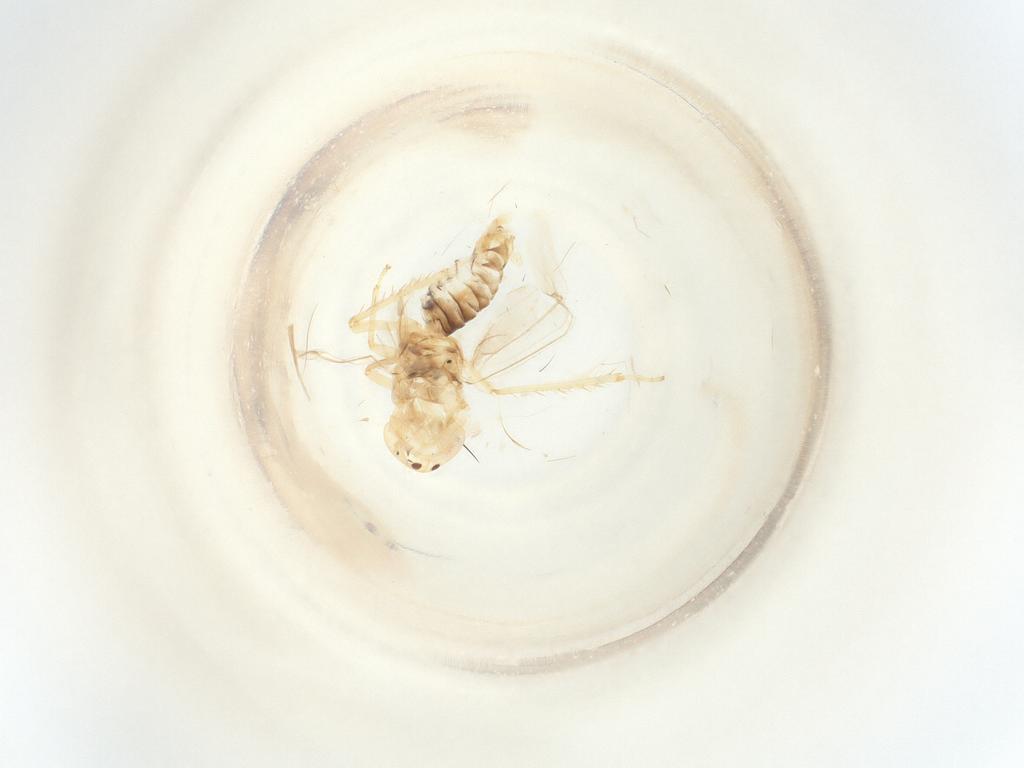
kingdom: Animalia
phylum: Arthropoda
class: Insecta
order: Hemiptera
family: Cicadellidae
